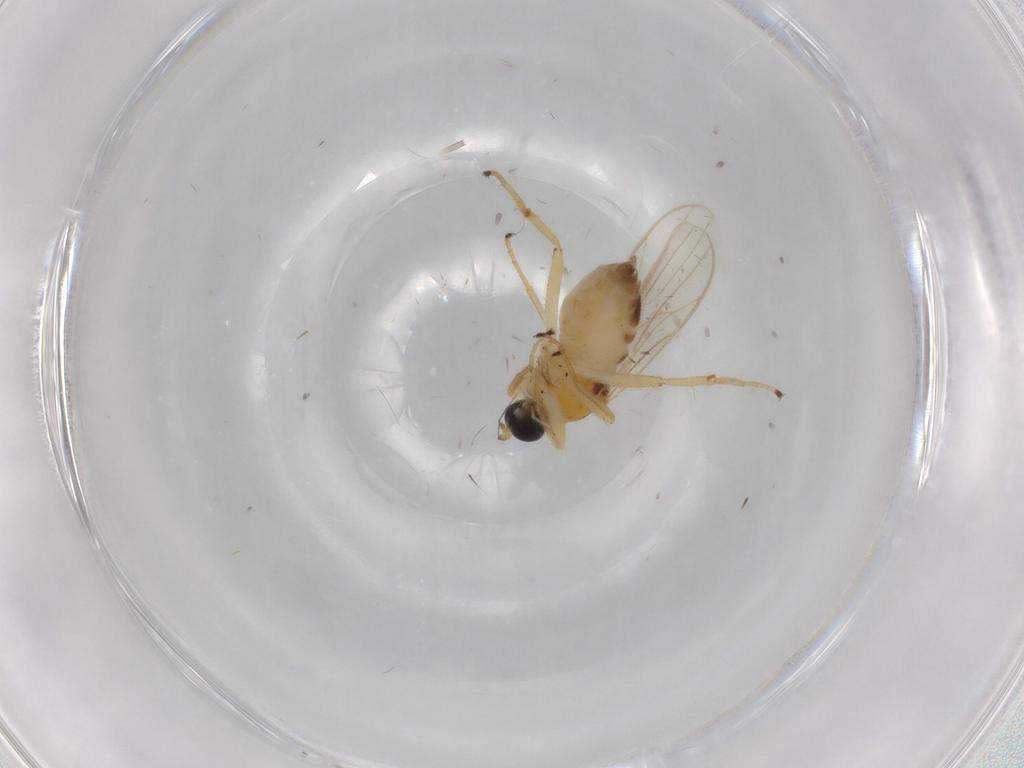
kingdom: Animalia
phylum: Arthropoda
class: Insecta
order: Diptera
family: Hybotidae
